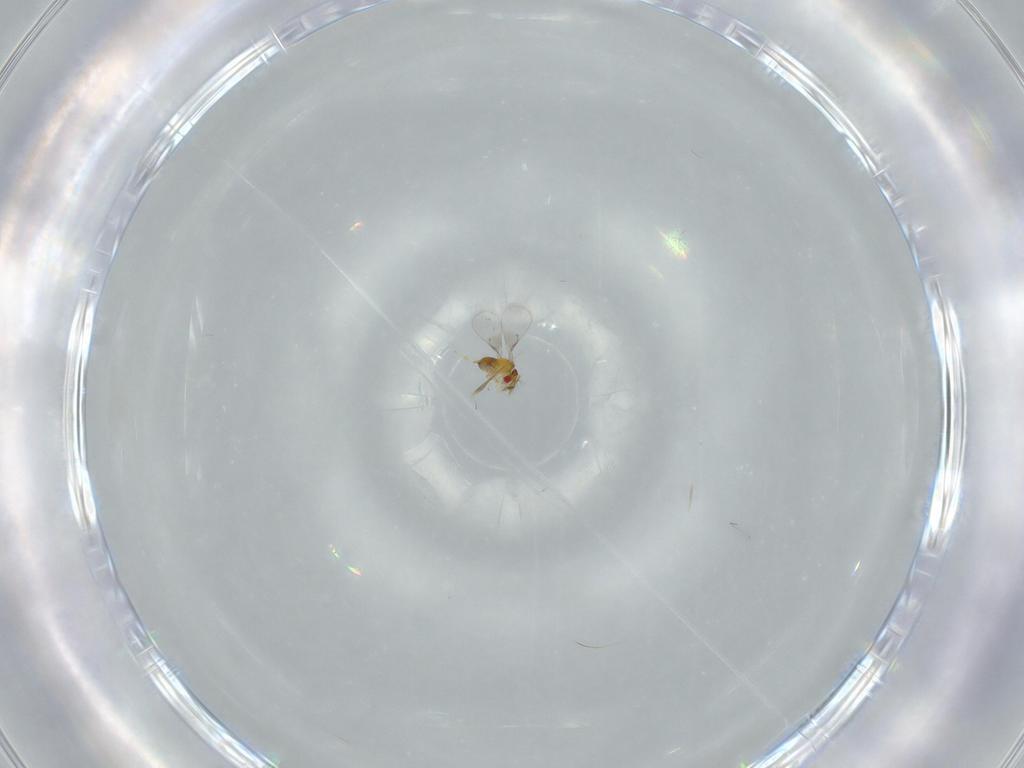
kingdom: Animalia
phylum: Arthropoda
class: Insecta
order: Hymenoptera
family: Trichogrammatidae
